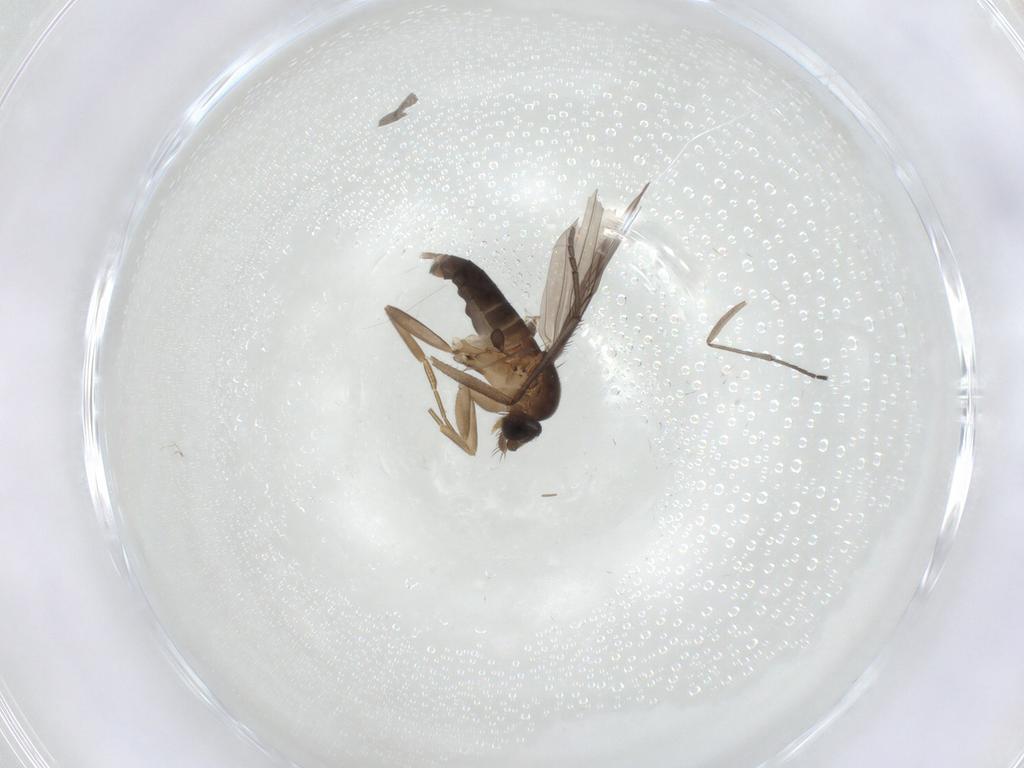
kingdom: Animalia
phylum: Arthropoda
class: Insecta
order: Diptera
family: Sciaridae
